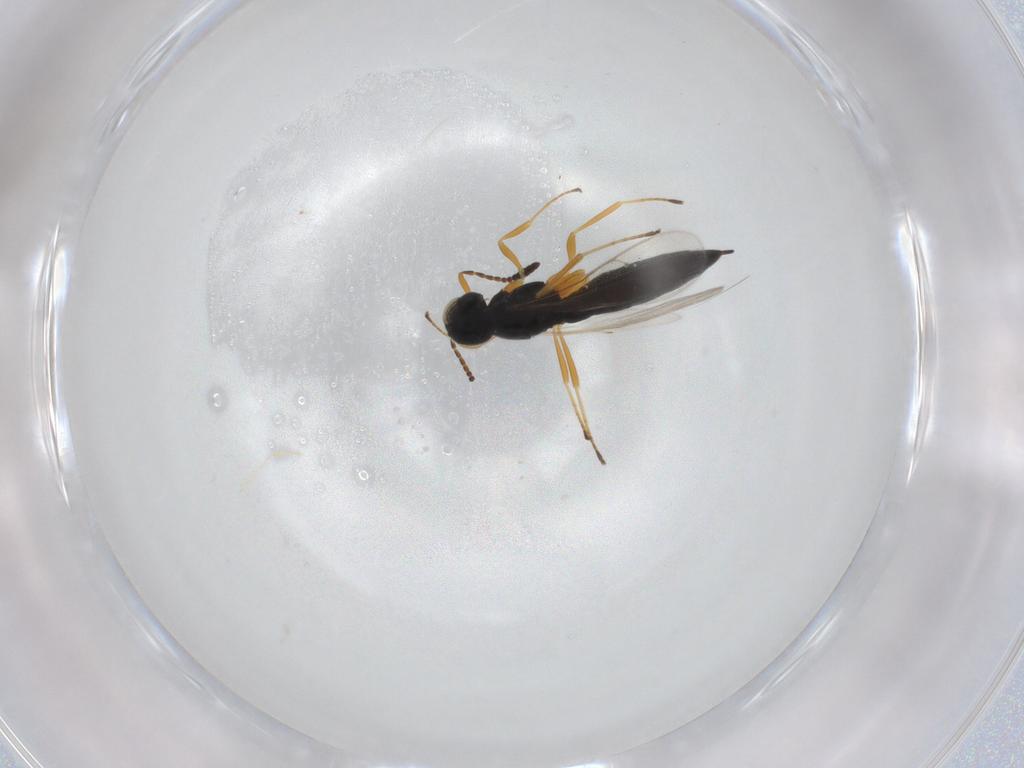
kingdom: Animalia
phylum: Arthropoda
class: Insecta
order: Hymenoptera
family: Scelionidae
